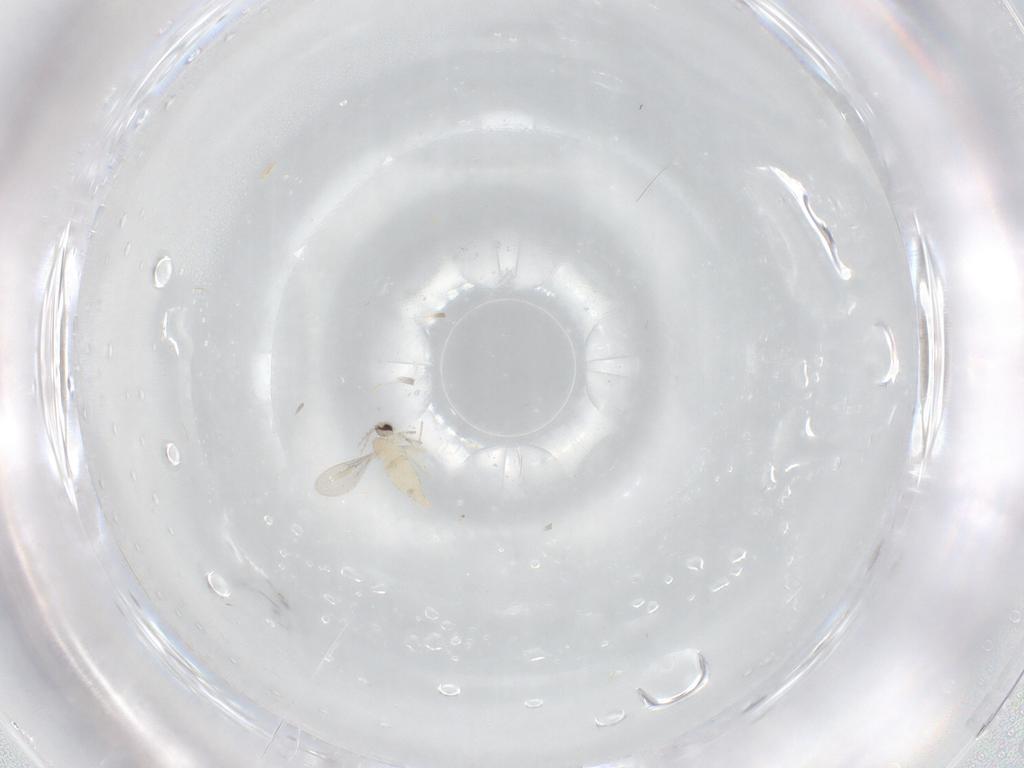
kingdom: Animalia
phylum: Arthropoda
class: Insecta
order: Diptera
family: Cecidomyiidae
